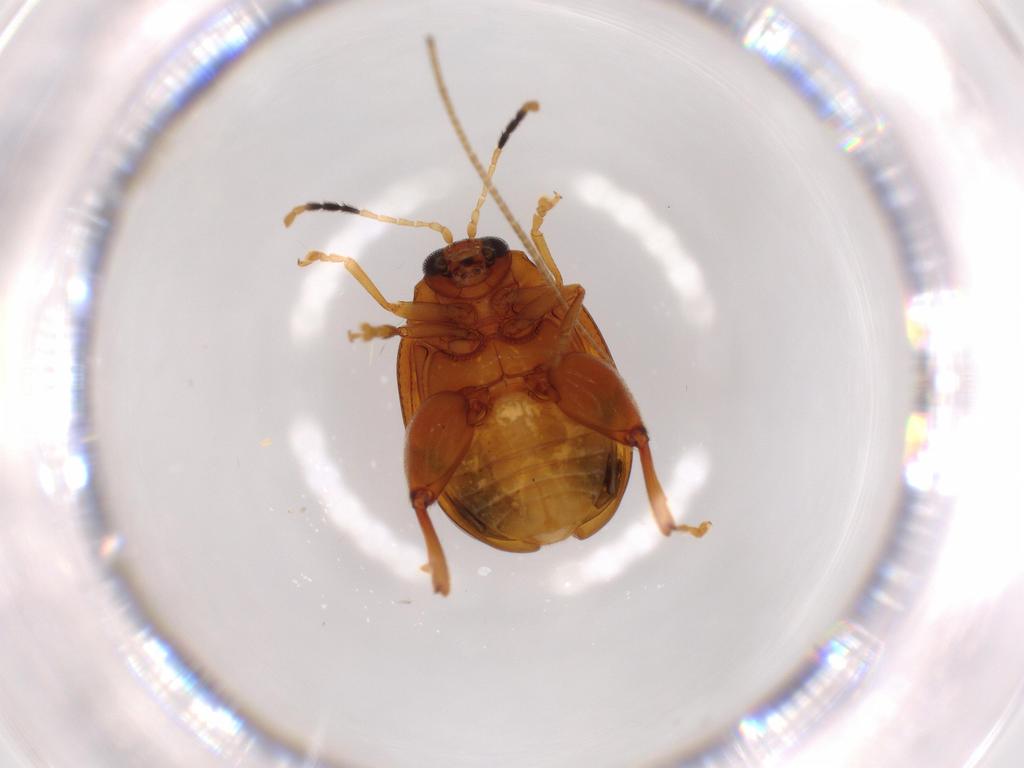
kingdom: Animalia
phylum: Arthropoda
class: Insecta
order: Coleoptera
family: Chrysomelidae
